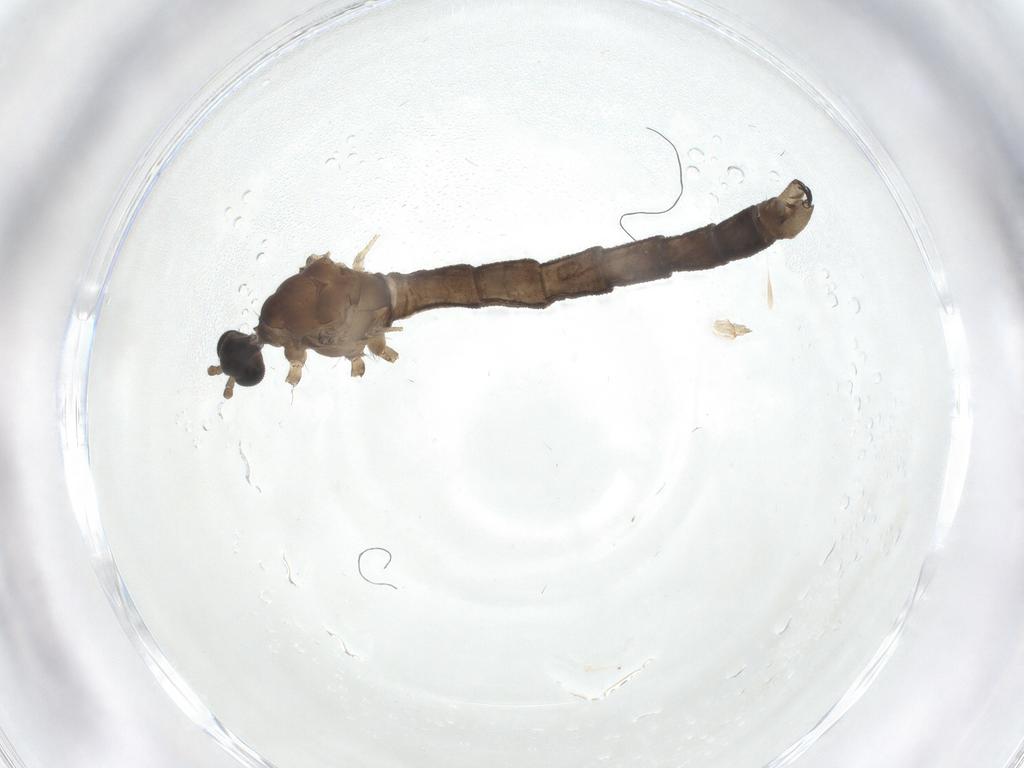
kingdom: Animalia
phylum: Arthropoda
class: Insecta
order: Diptera
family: Chironomidae
